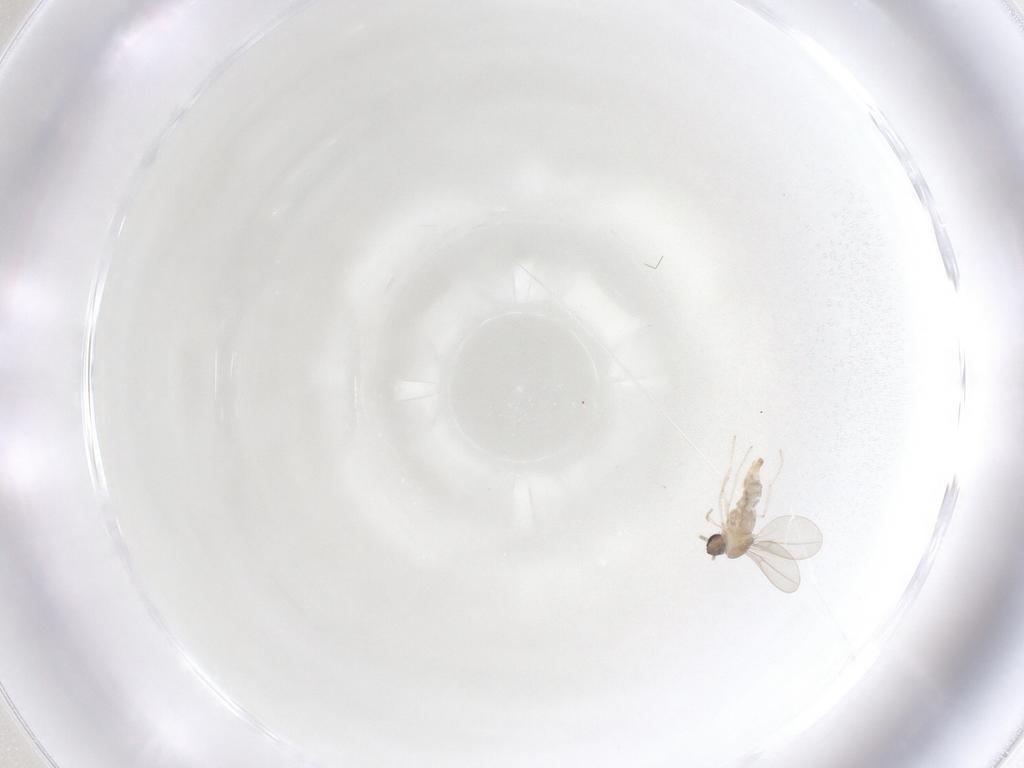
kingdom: Animalia
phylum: Arthropoda
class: Insecta
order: Diptera
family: Cecidomyiidae
